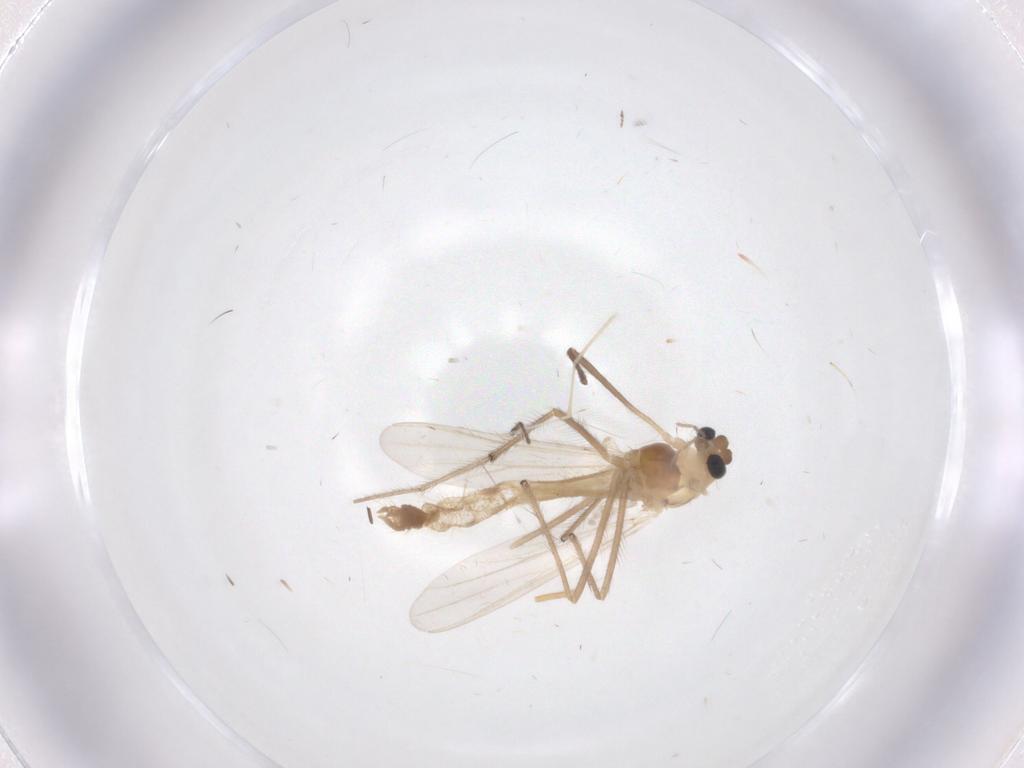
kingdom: Animalia
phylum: Arthropoda
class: Insecta
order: Diptera
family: Chironomidae
